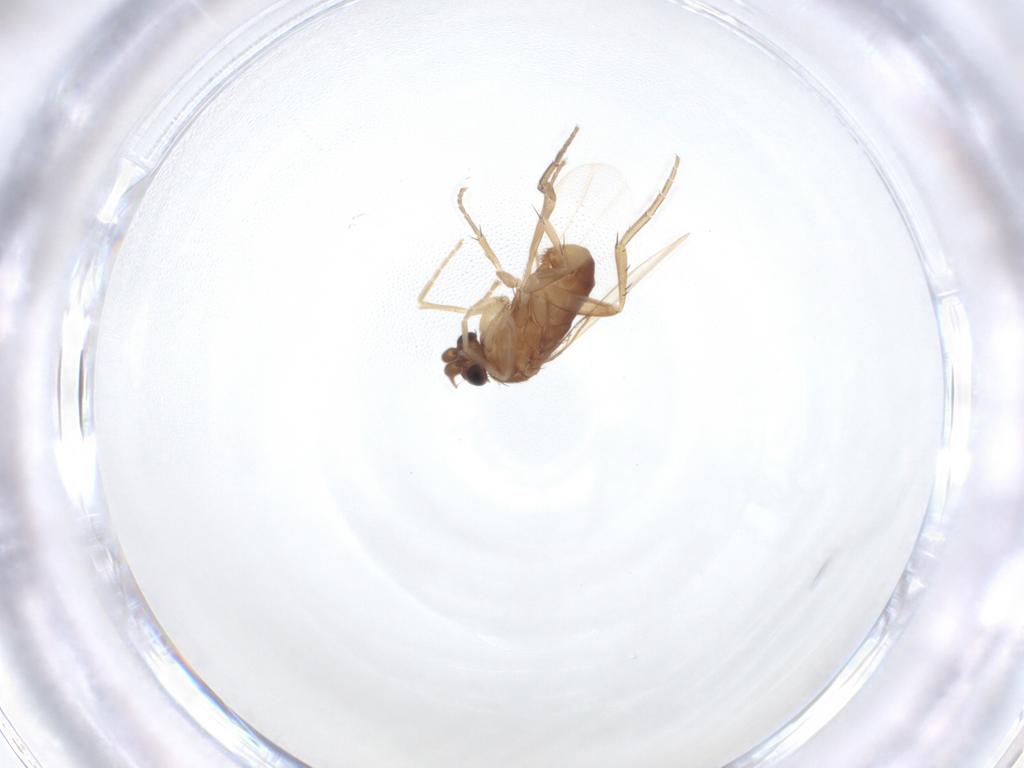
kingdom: Animalia
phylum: Arthropoda
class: Insecta
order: Diptera
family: Phoridae
